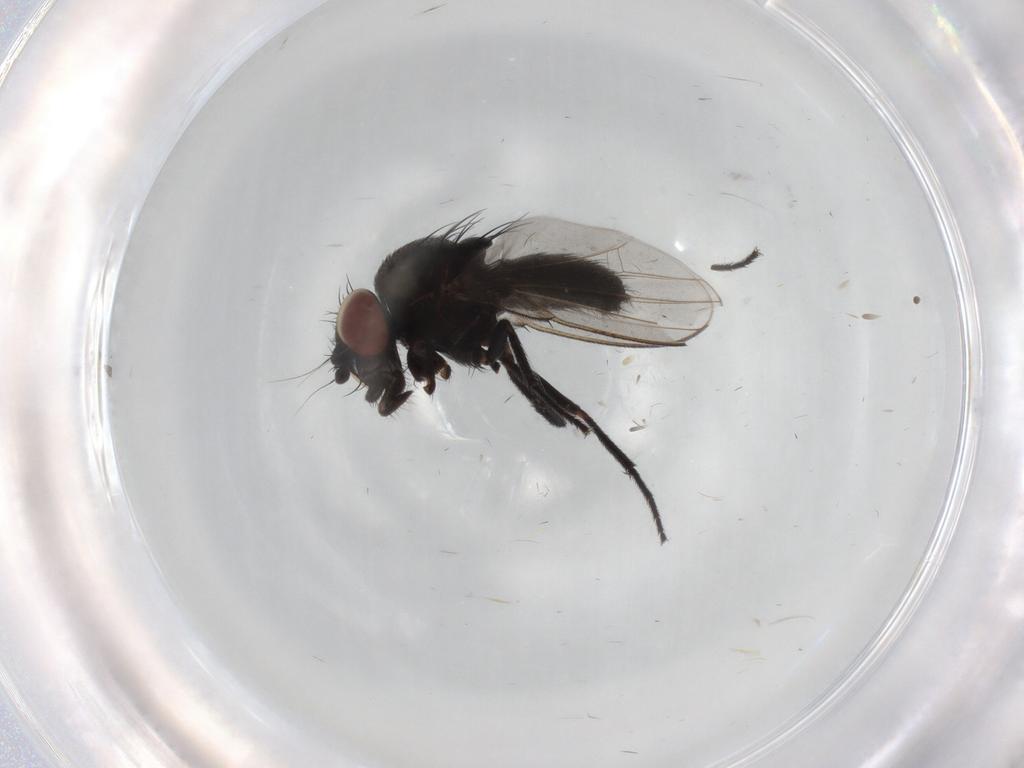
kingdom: Animalia
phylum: Arthropoda
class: Insecta
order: Diptera
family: Milichiidae
